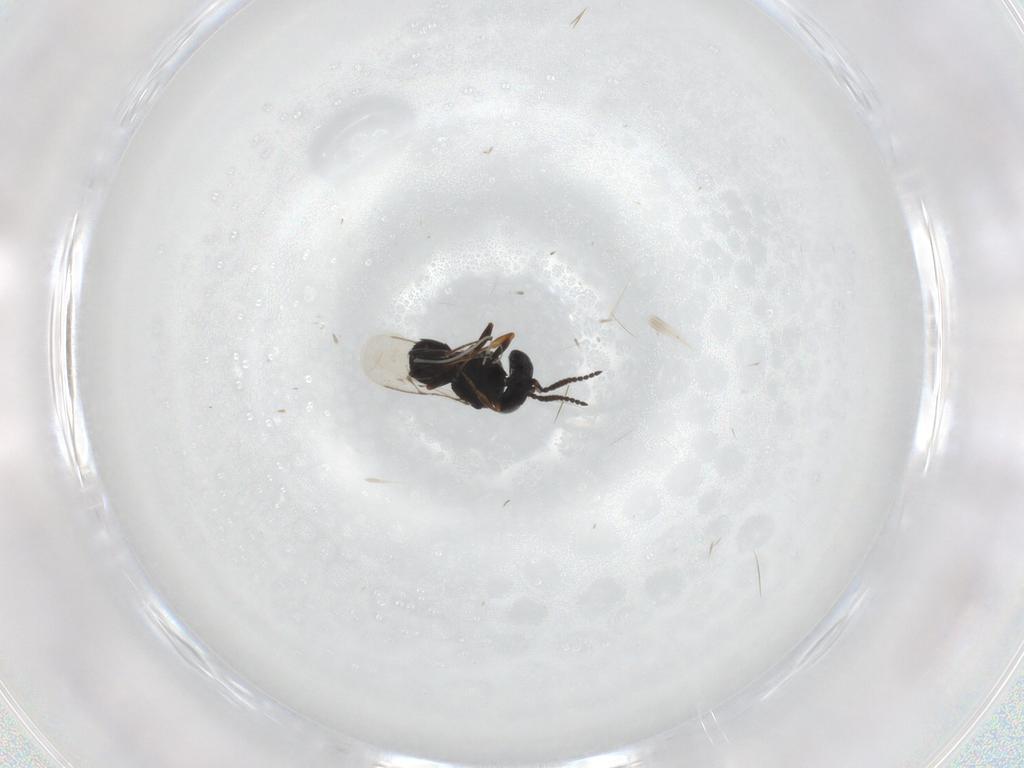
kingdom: Animalia
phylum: Arthropoda
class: Insecta
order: Hymenoptera
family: Scelionidae
